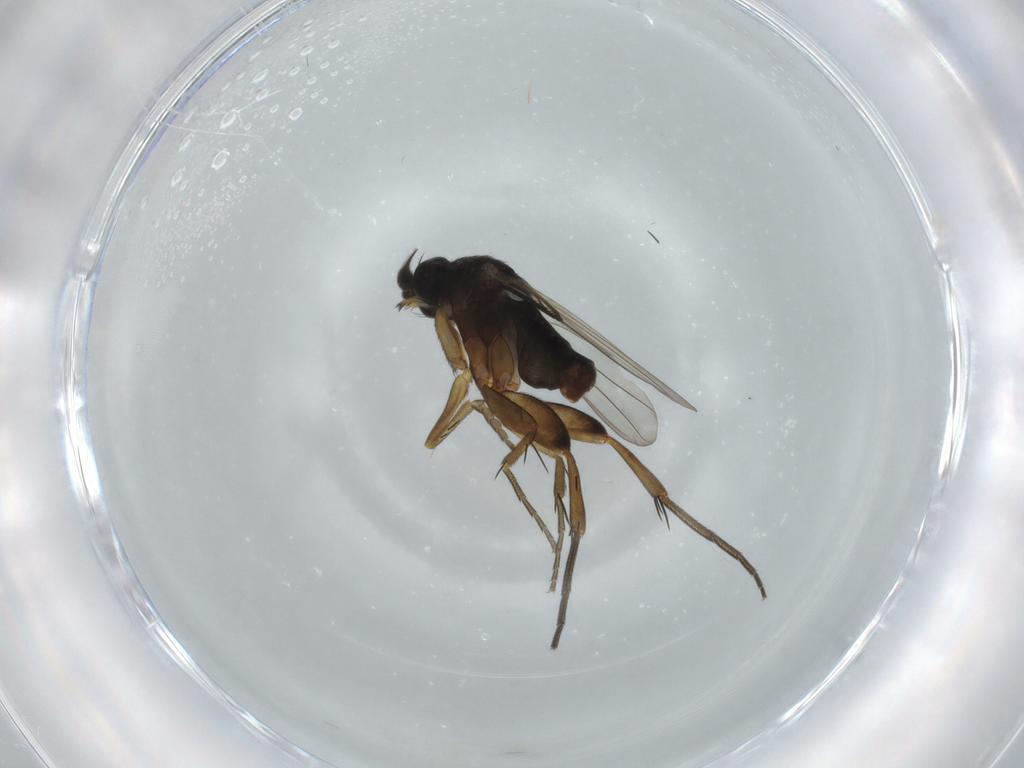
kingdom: Animalia
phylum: Arthropoda
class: Insecta
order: Diptera
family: Phoridae
